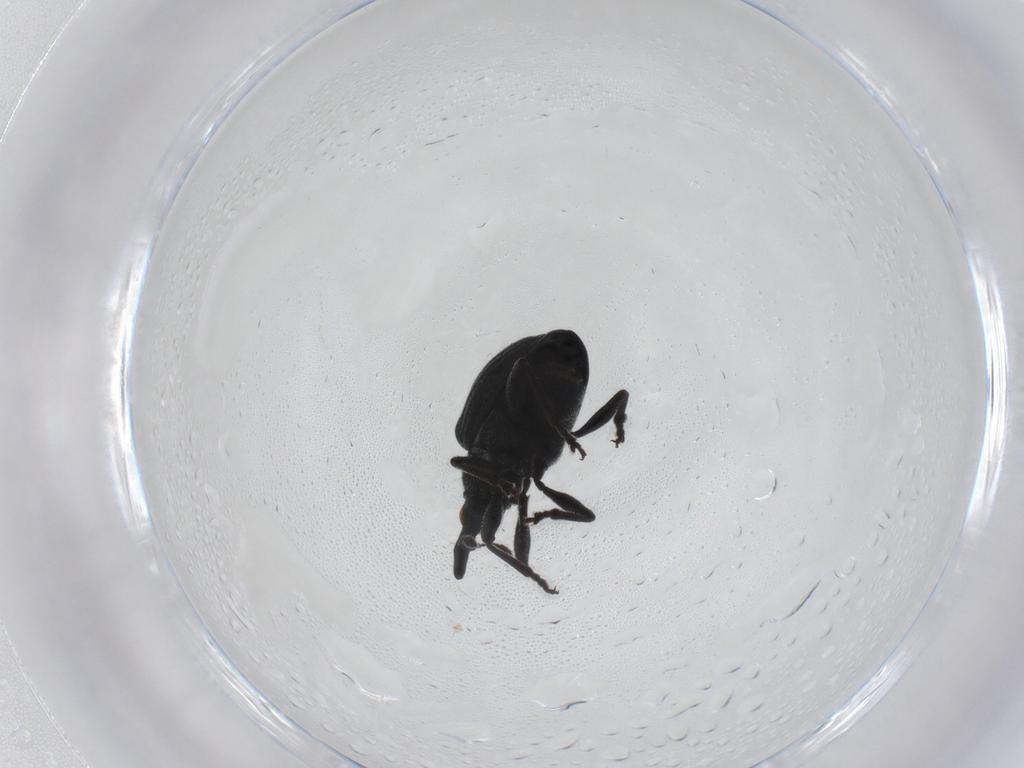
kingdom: Animalia
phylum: Arthropoda
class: Insecta
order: Coleoptera
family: Brentidae
